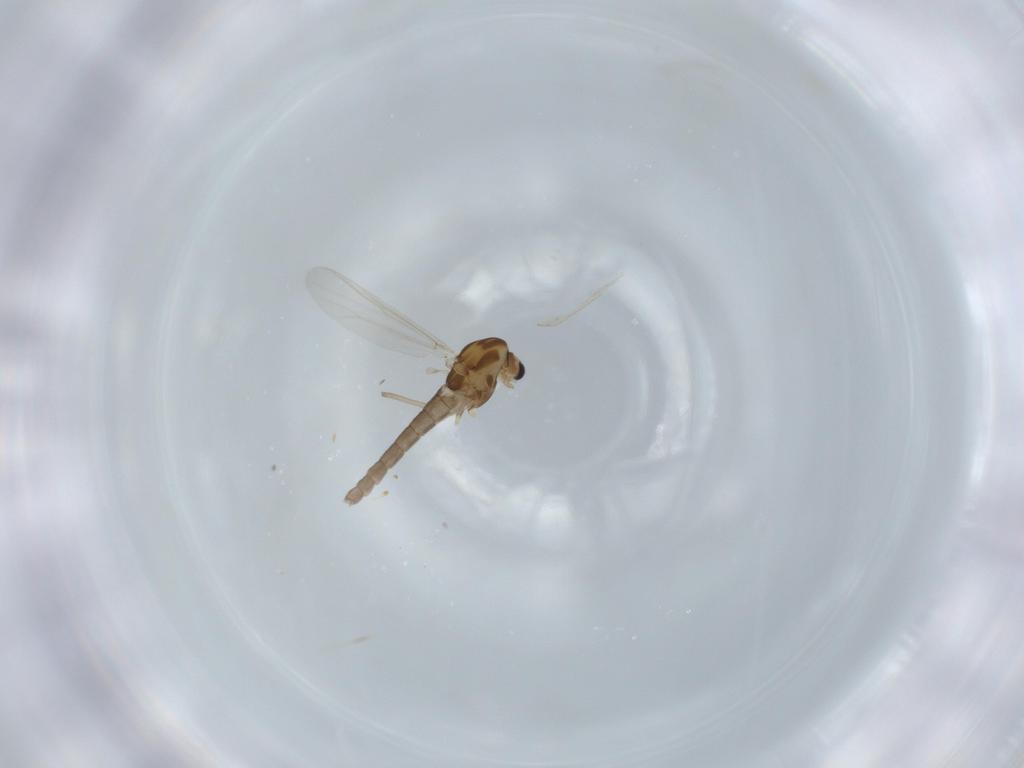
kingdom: Animalia
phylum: Arthropoda
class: Insecta
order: Diptera
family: Chironomidae
